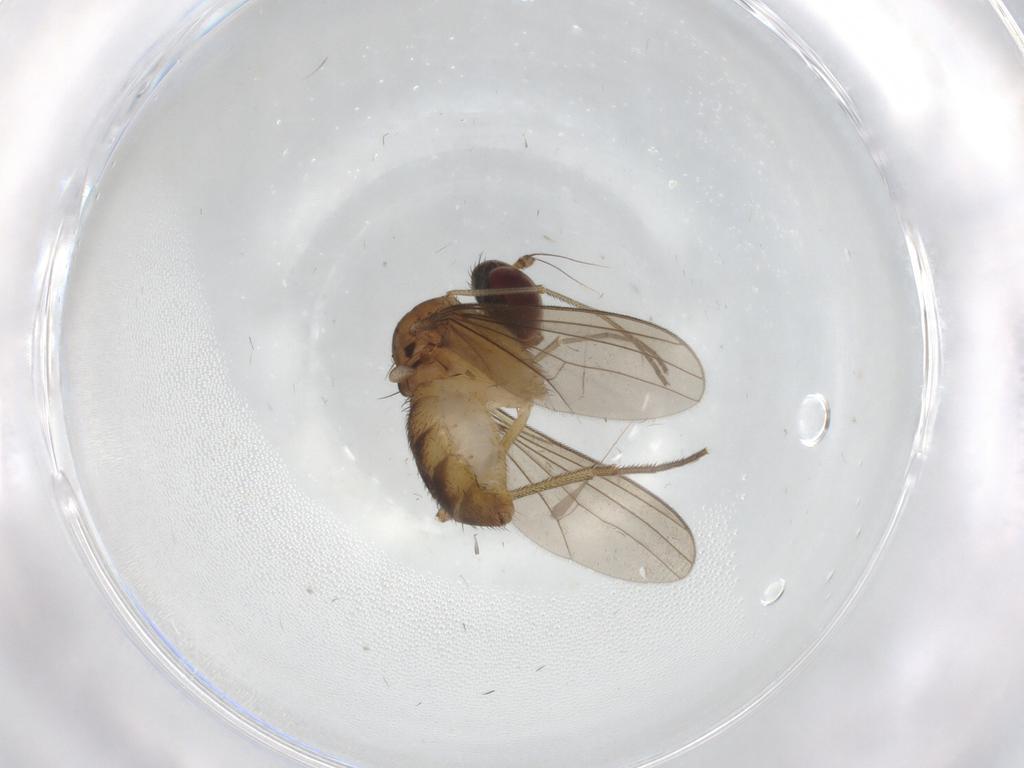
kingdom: Animalia
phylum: Arthropoda
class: Insecta
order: Diptera
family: Dolichopodidae
